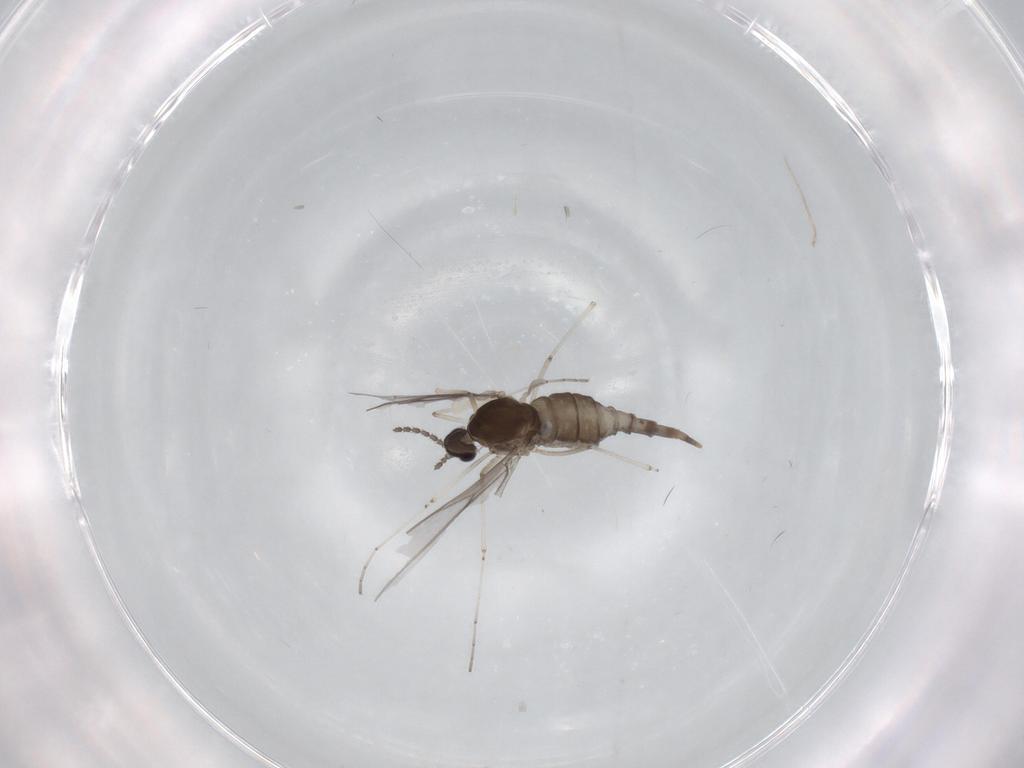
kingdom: Animalia
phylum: Arthropoda
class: Insecta
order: Diptera
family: Cecidomyiidae
